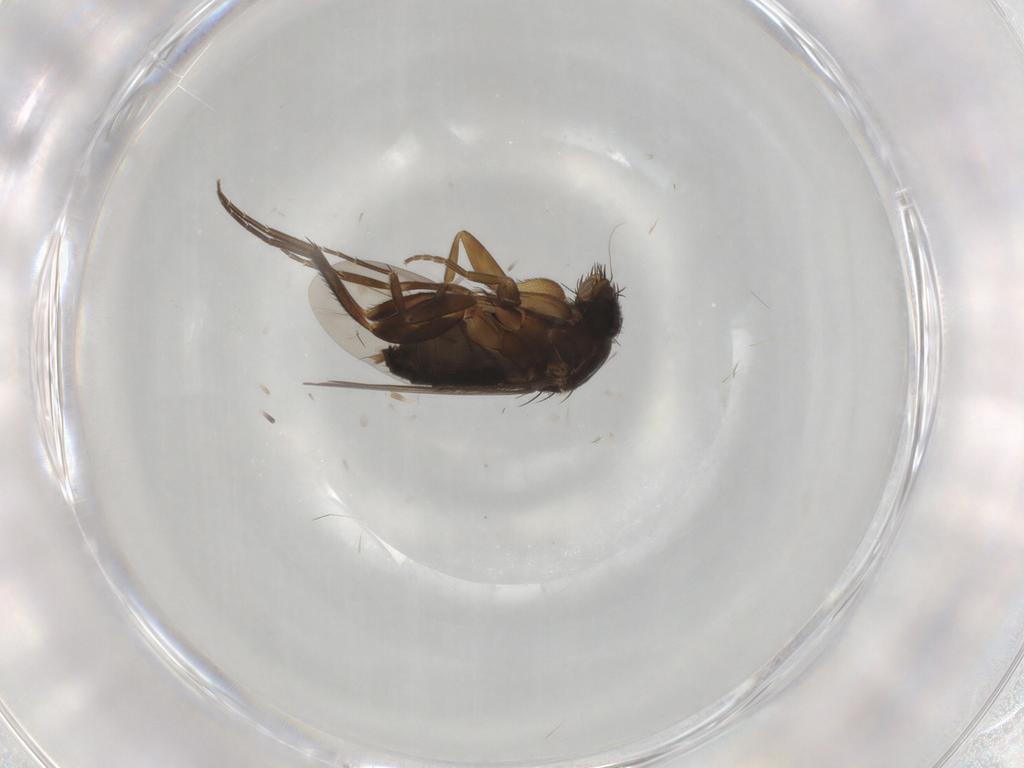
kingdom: Animalia
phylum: Arthropoda
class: Insecta
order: Diptera
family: Phoridae
